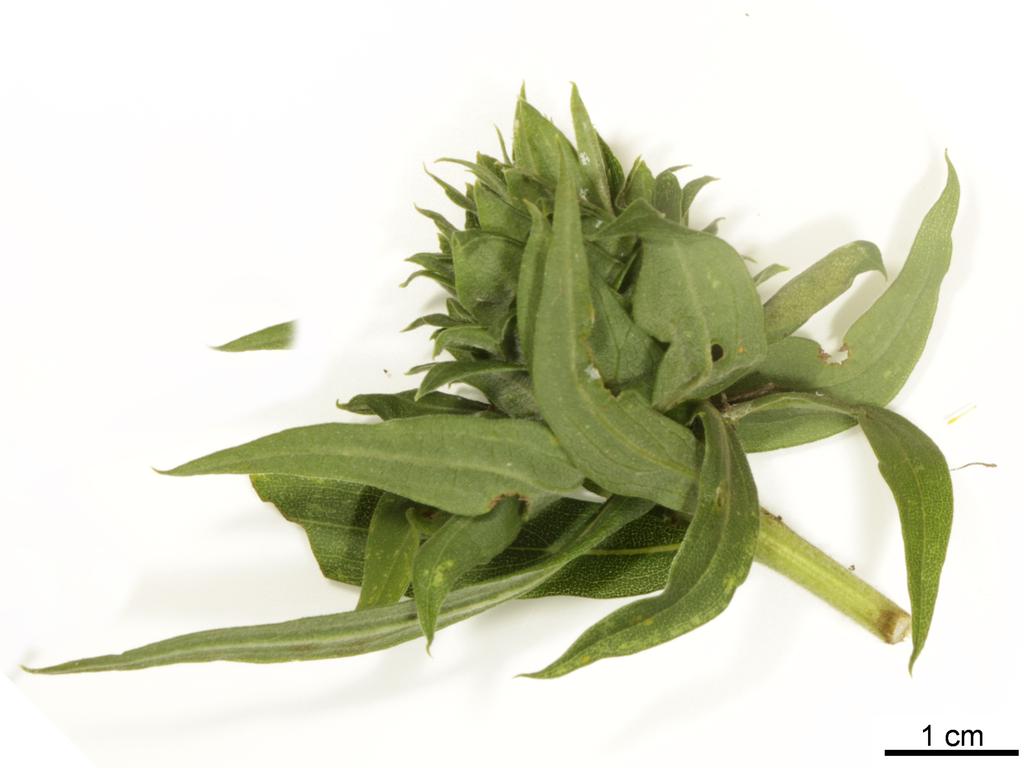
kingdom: Animalia
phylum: Arthropoda
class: Insecta
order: Hymenoptera
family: Torymidae
